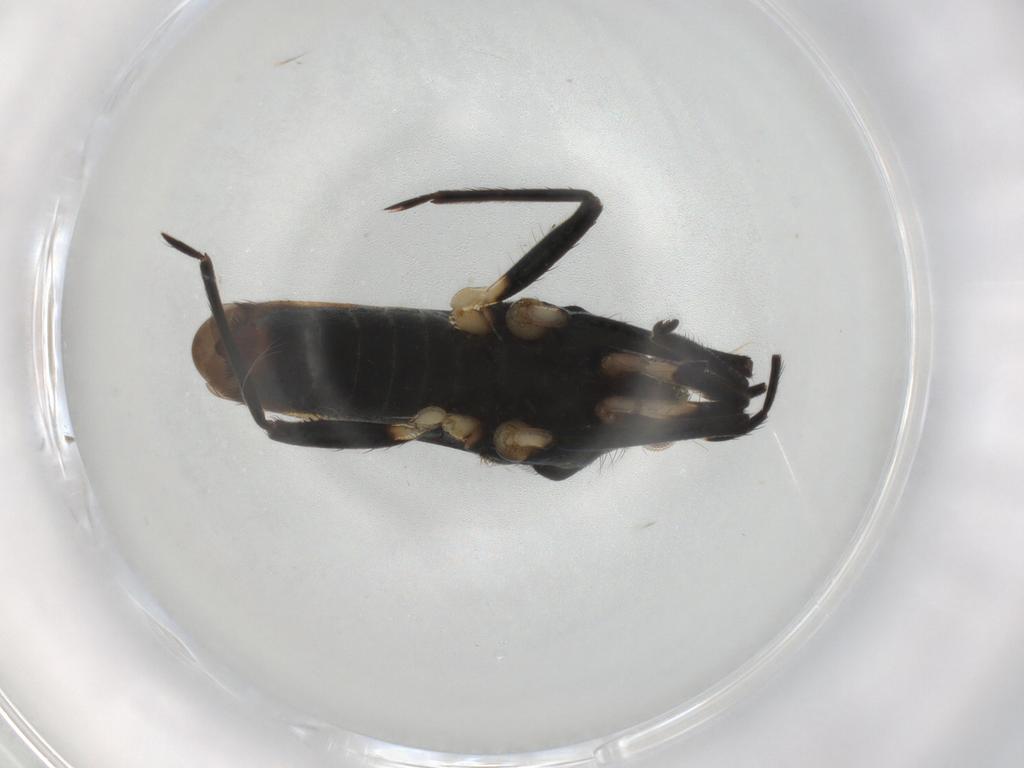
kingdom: Animalia
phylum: Arthropoda
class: Insecta
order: Hemiptera
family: Veliidae
